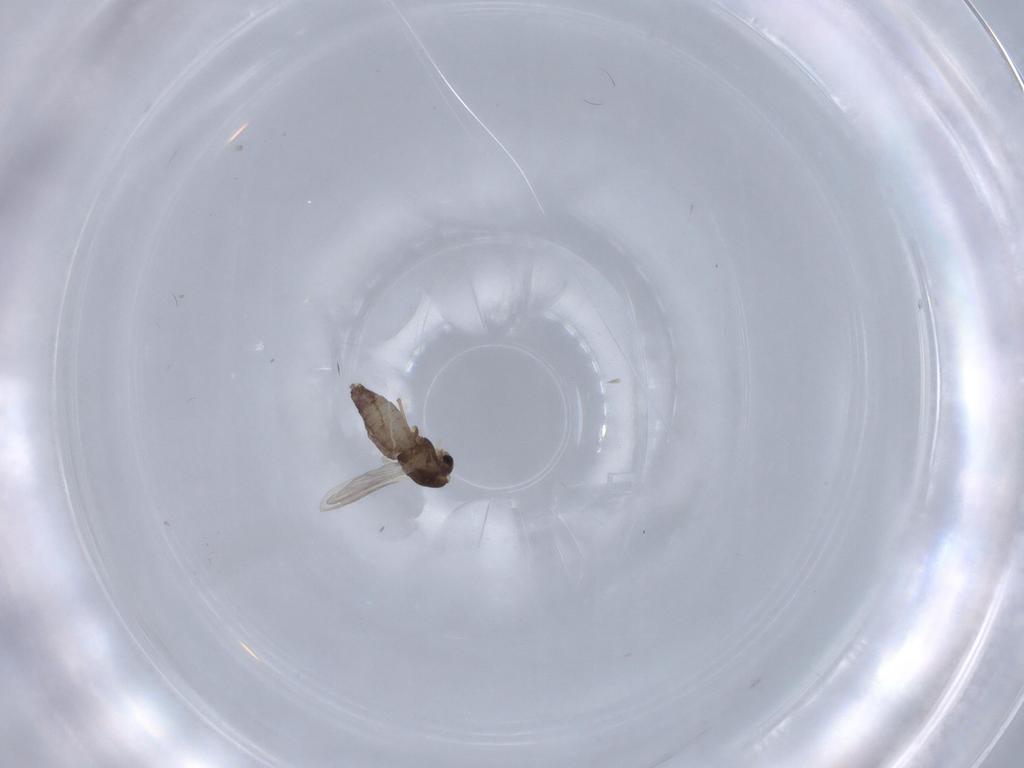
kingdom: Animalia
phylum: Arthropoda
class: Insecta
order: Diptera
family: Chironomidae
